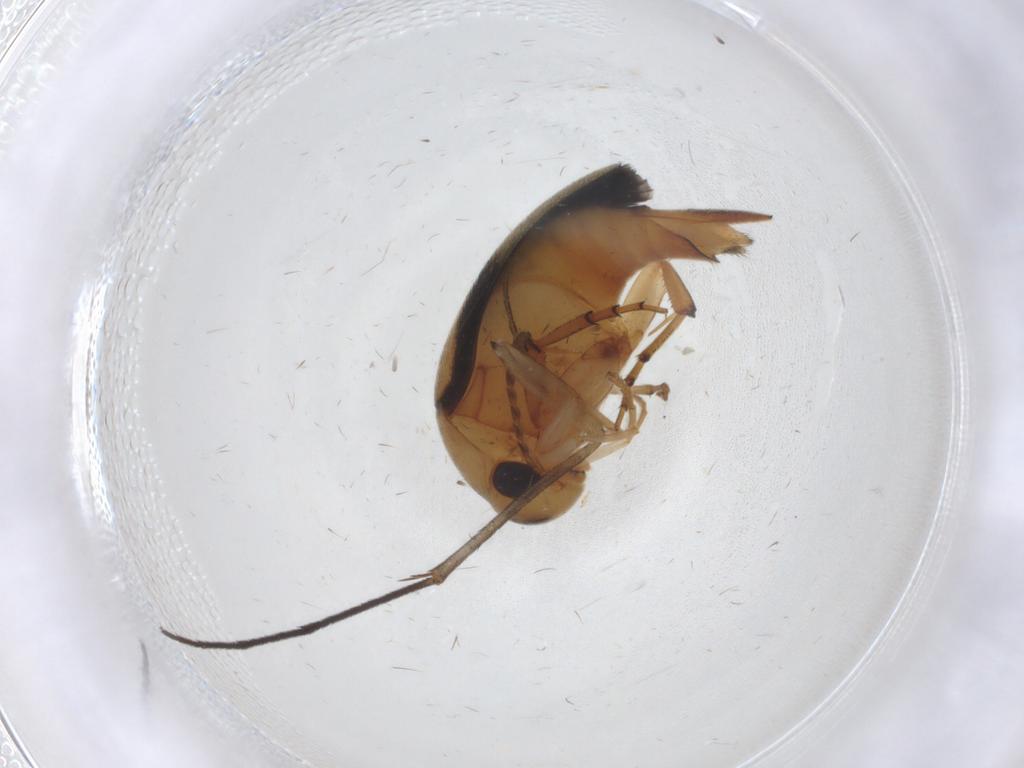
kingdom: Animalia
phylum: Arthropoda
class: Insecta
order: Coleoptera
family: Mordellidae
